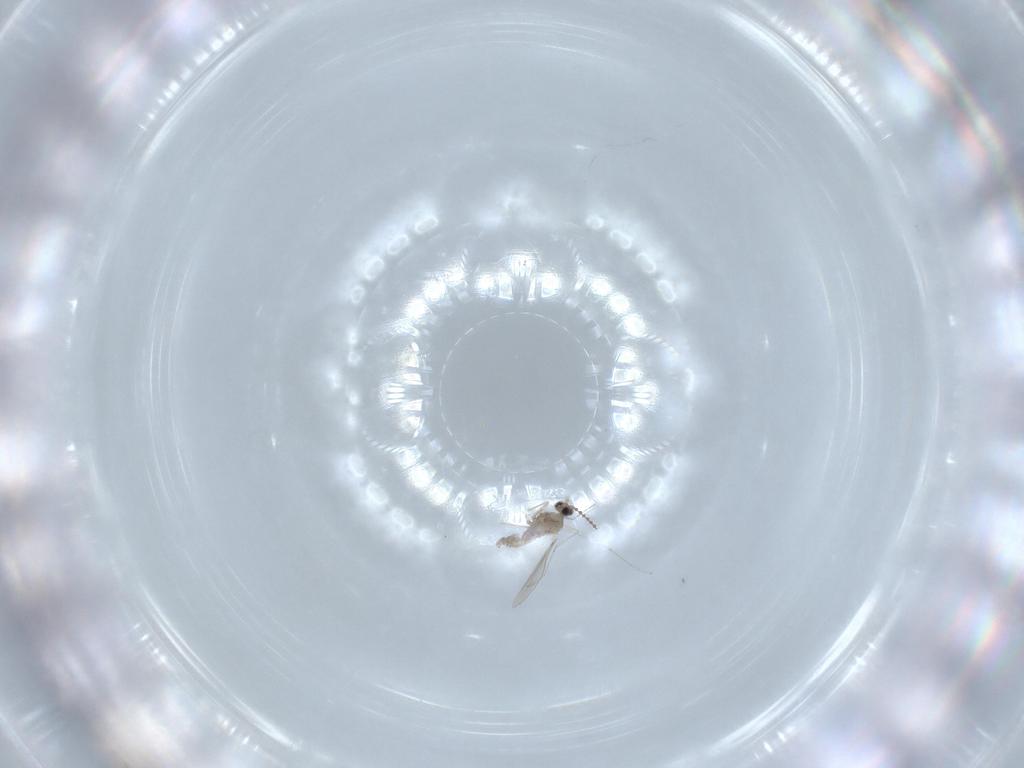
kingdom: Animalia
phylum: Arthropoda
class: Insecta
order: Diptera
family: Cecidomyiidae
